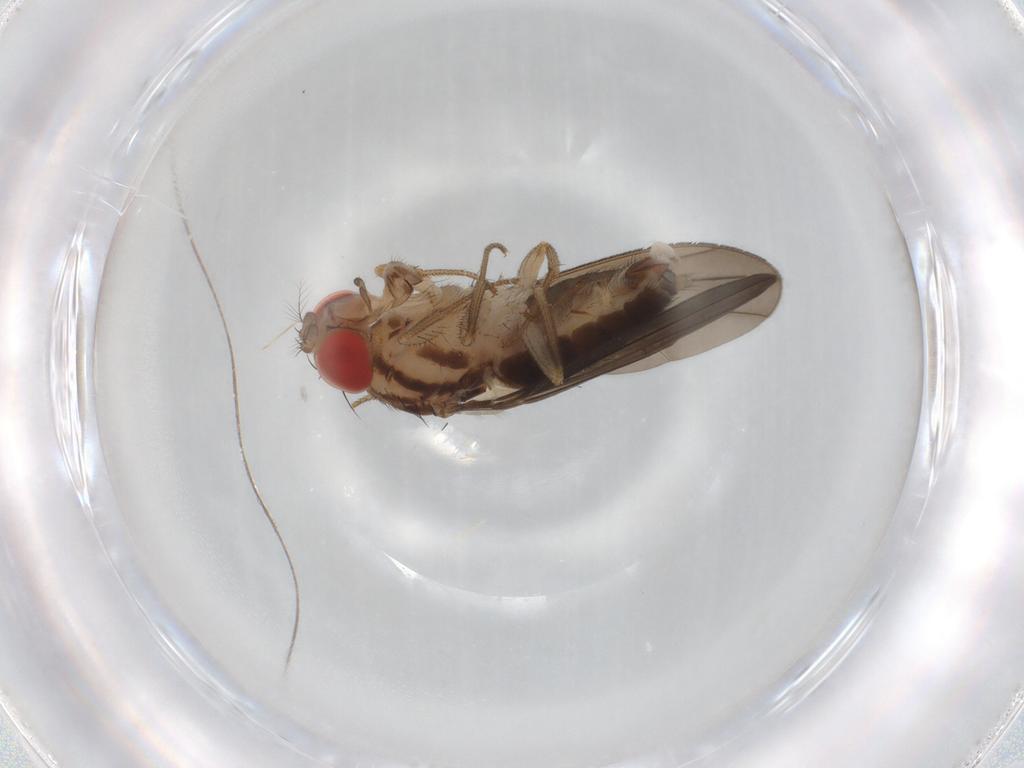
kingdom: Animalia
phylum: Arthropoda
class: Insecta
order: Diptera
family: Drosophilidae
